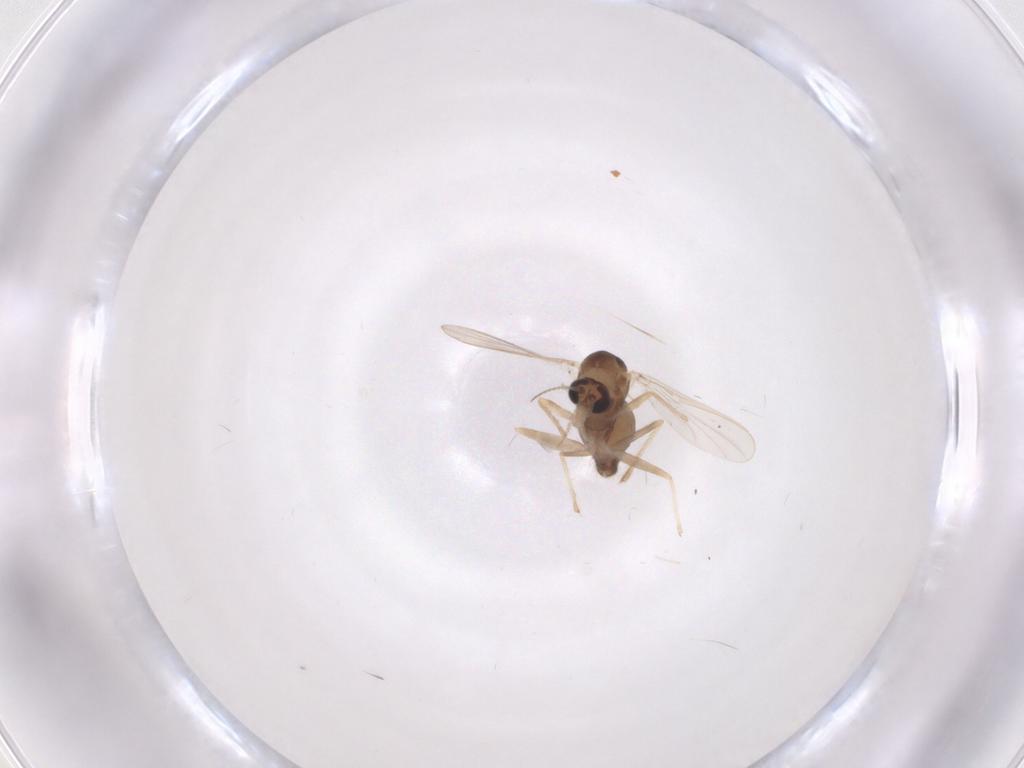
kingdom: Animalia
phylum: Arthropoda
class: Insecta
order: Diptera
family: Chironomidae
